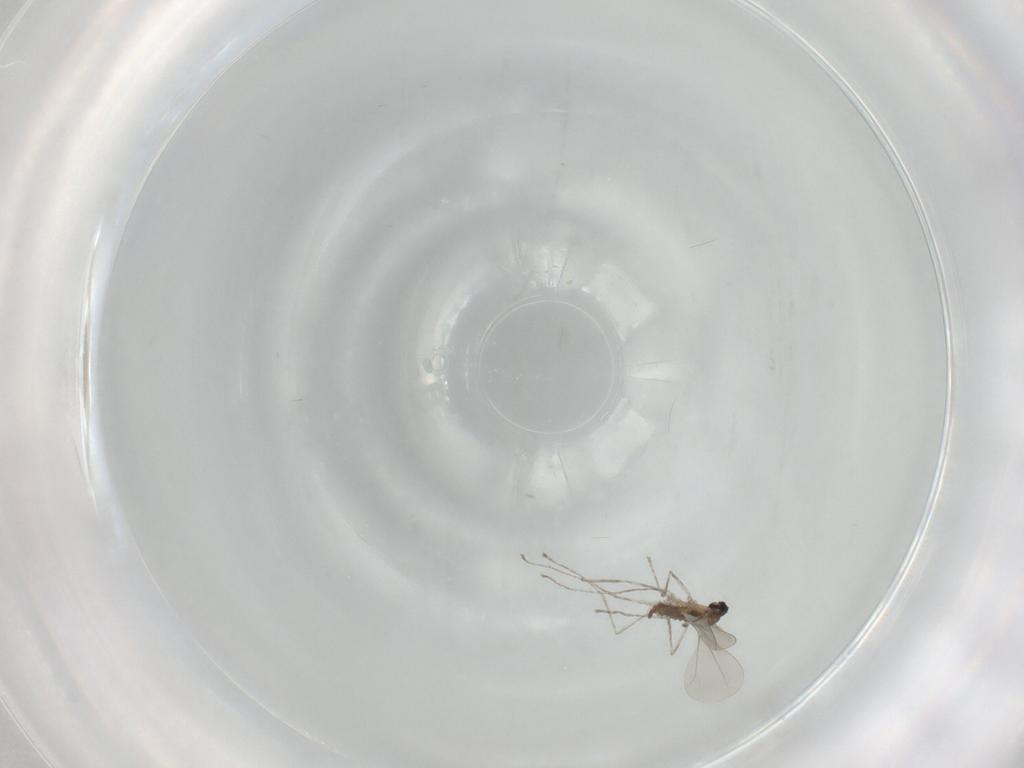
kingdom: Animalia
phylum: Arthropoda
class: Insecta
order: Diptera
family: Cecidomyiidae
